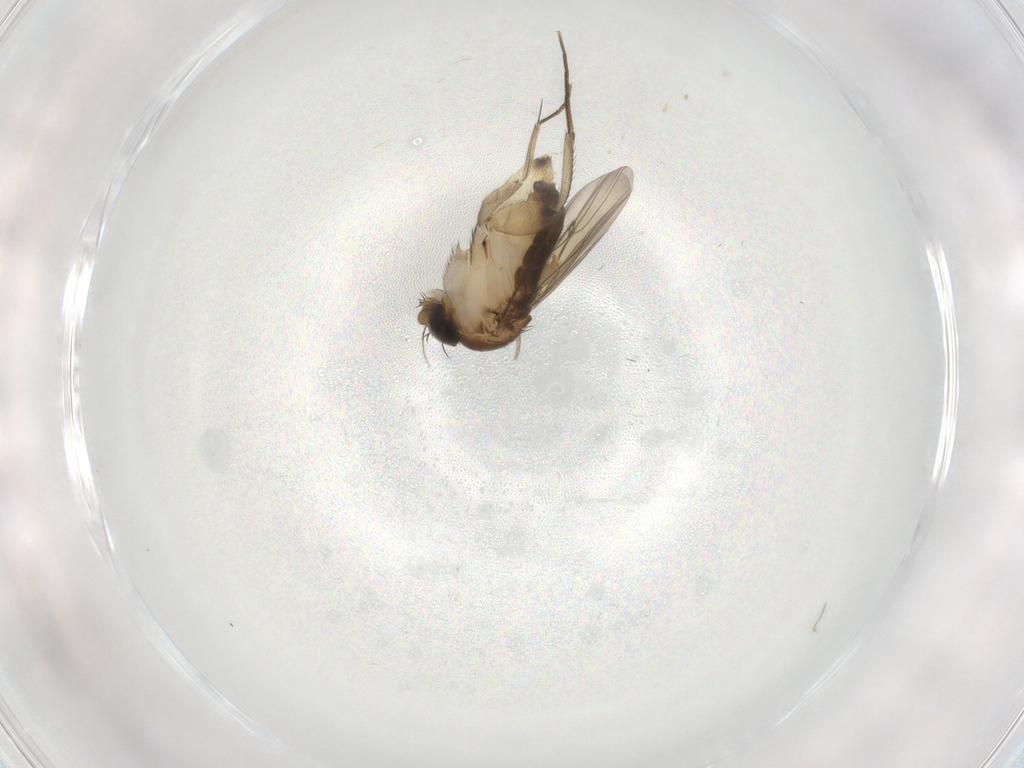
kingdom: Animalia
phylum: Arthropoda
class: Insecta
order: Diptera
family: Phoridae
